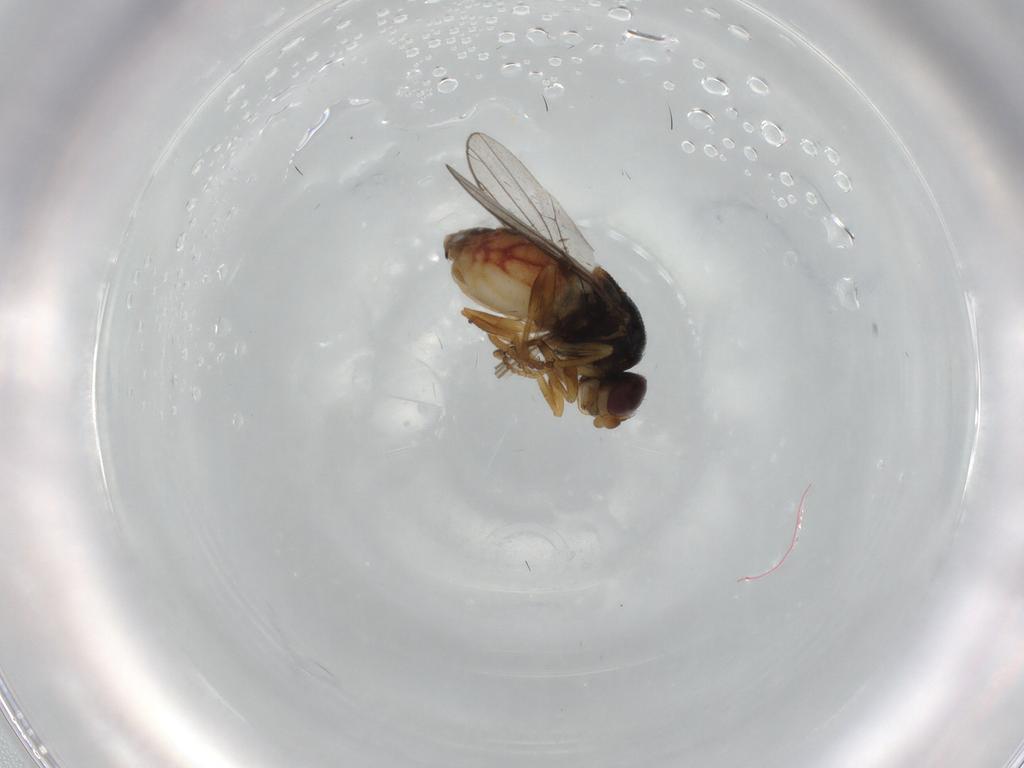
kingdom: Animalia
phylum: Arthropoda
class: Insecta
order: Diptera
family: Chloropidae
